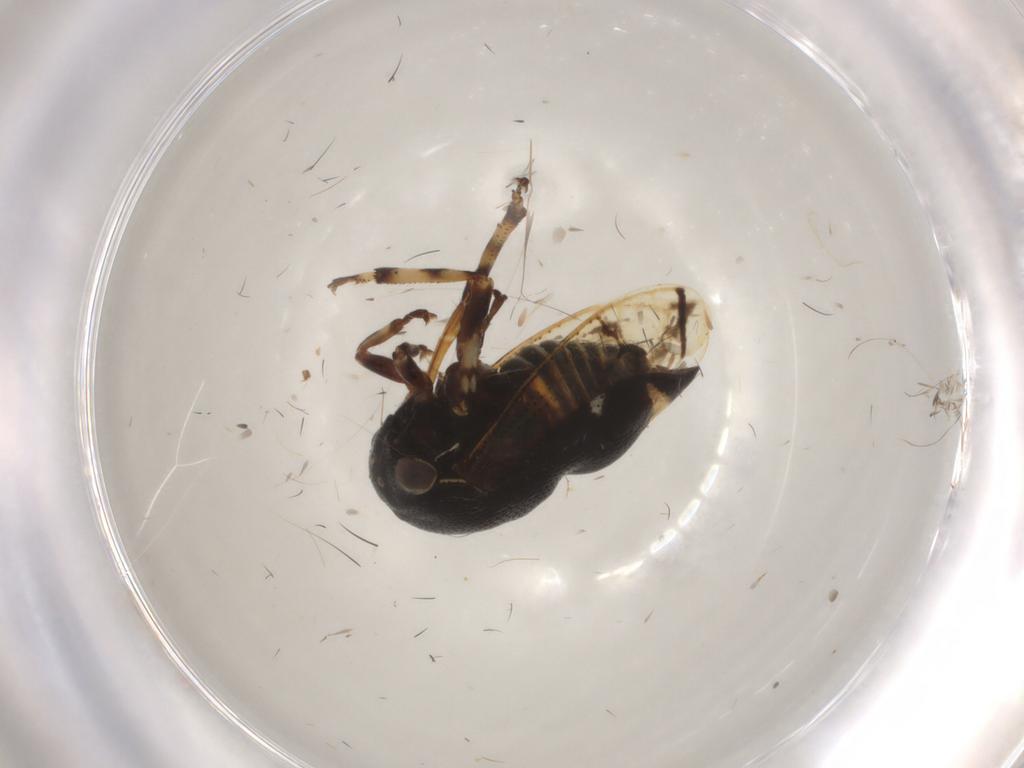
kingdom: Animalia
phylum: Arthropoda
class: Insecta
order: Hemiptera
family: Membracidae
